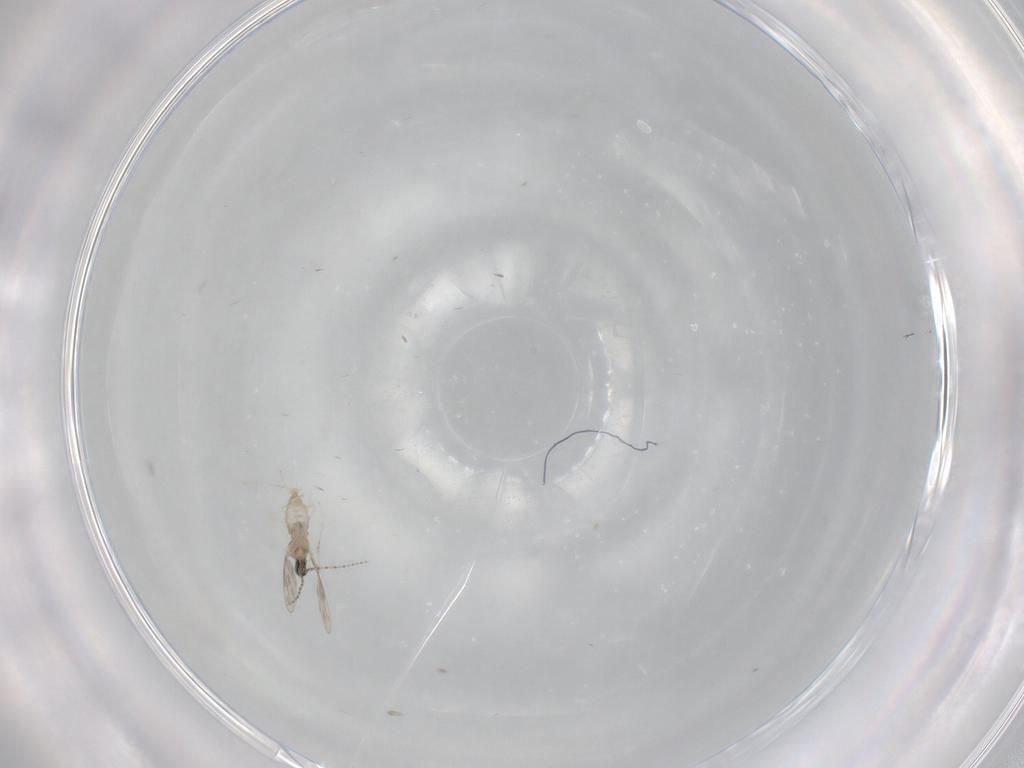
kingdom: Animalia
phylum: Arthropoda
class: Insecta
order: Diptera
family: Cecidomyiidae
